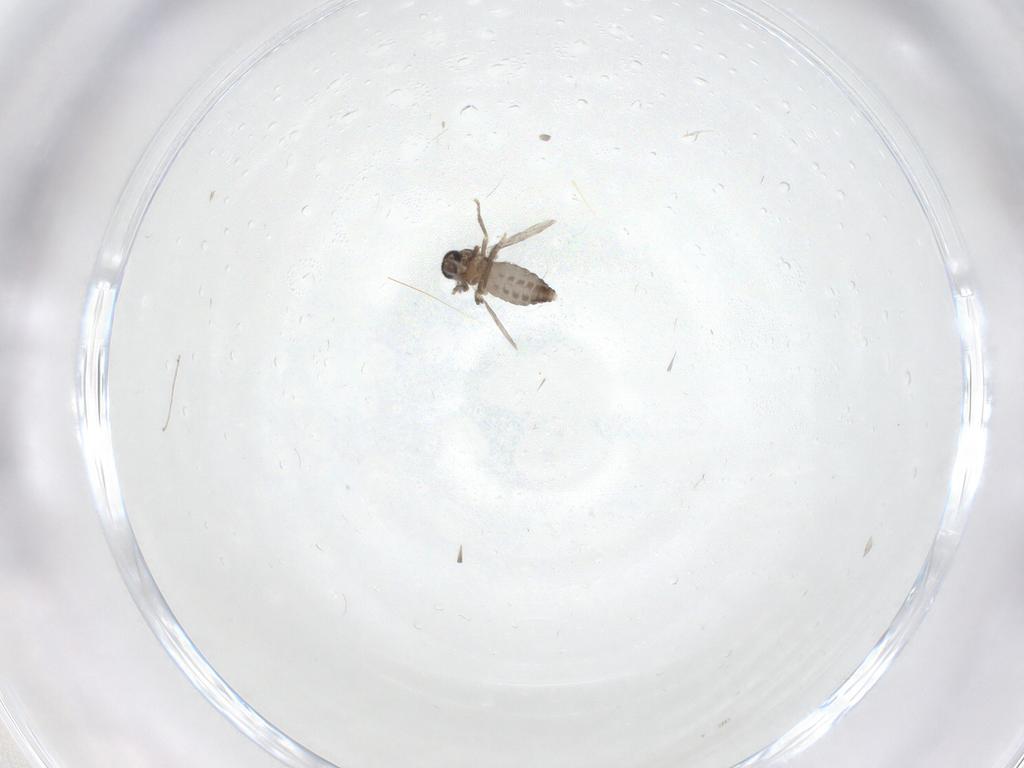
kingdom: Animalia
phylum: Arthropoda
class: Insecta
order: Diptera
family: Ceratopogonidae
